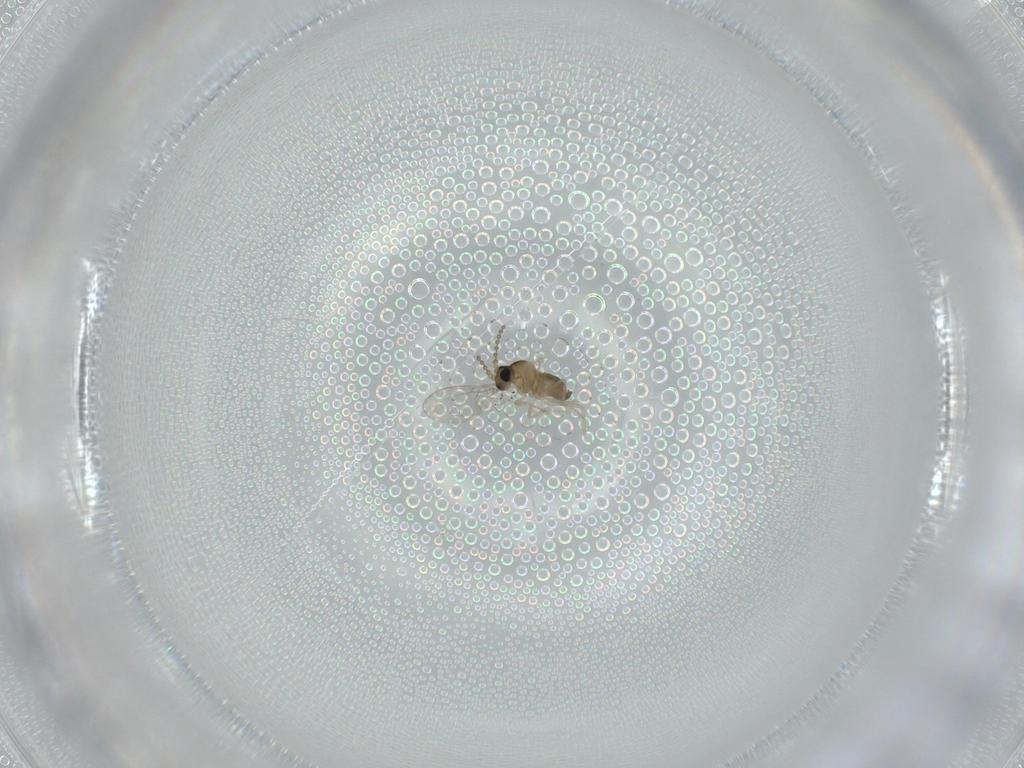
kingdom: Animalia
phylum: Arthropoda
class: Insecta
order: Diptera
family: Cecidomyiidae
